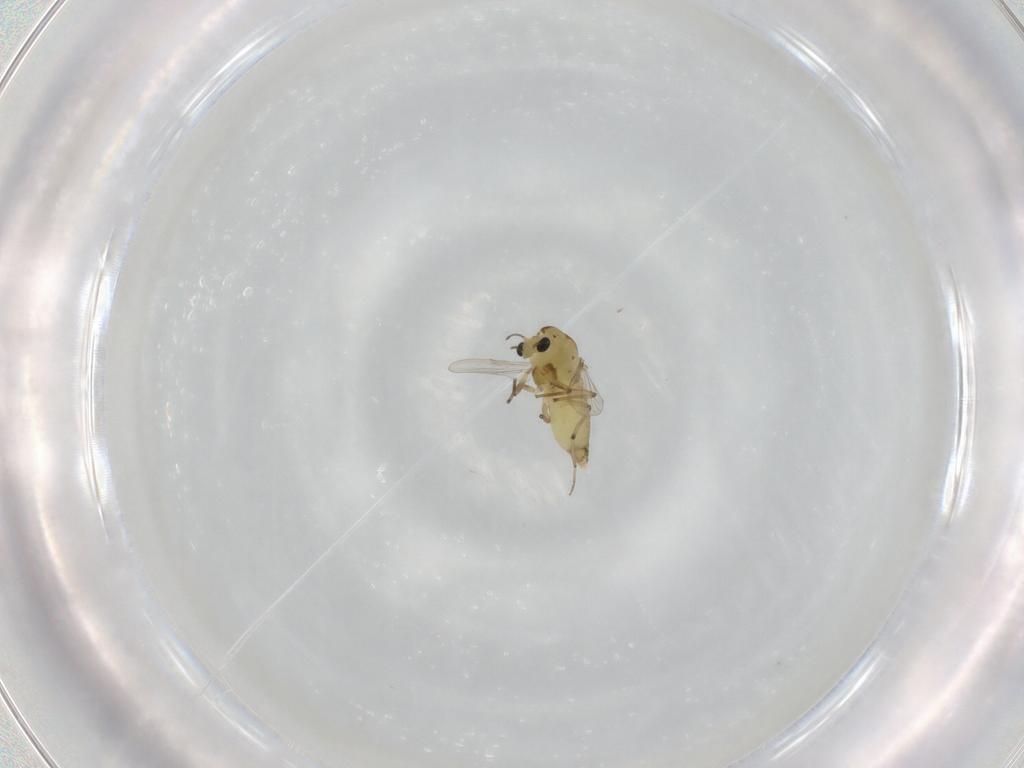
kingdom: Animalia
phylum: Arthropoda
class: Insecta
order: Diptera
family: Chironomidae
